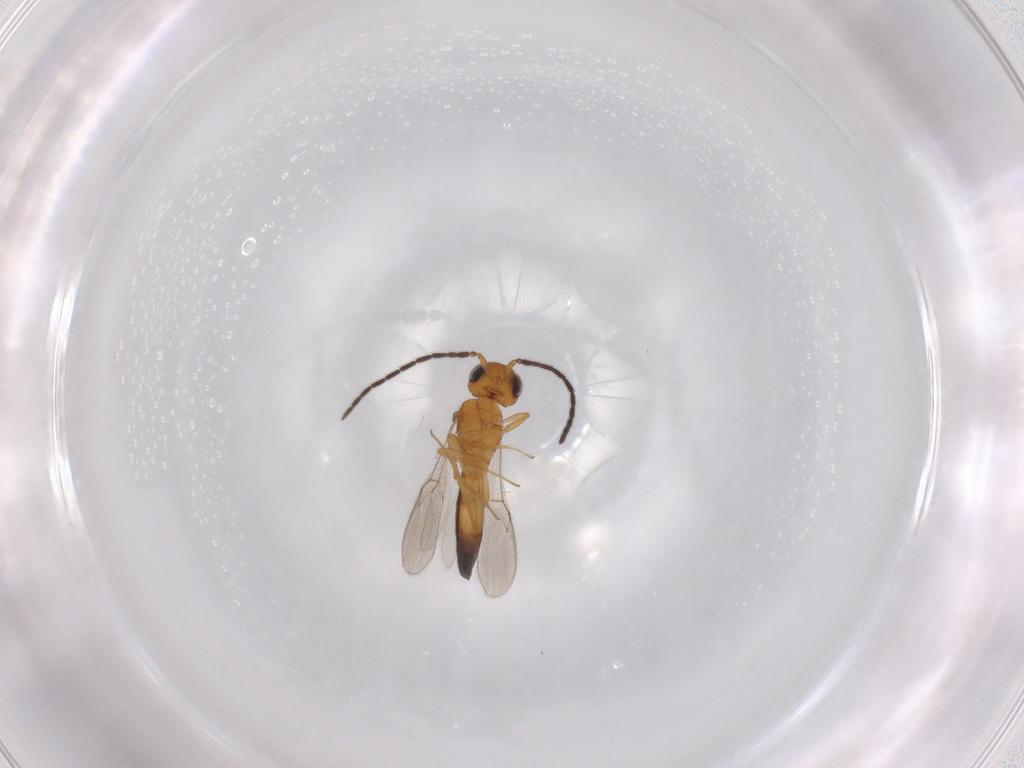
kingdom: Animalia
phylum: Arthropoda
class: Insecta
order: Hymenoptera
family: Scelionidae
